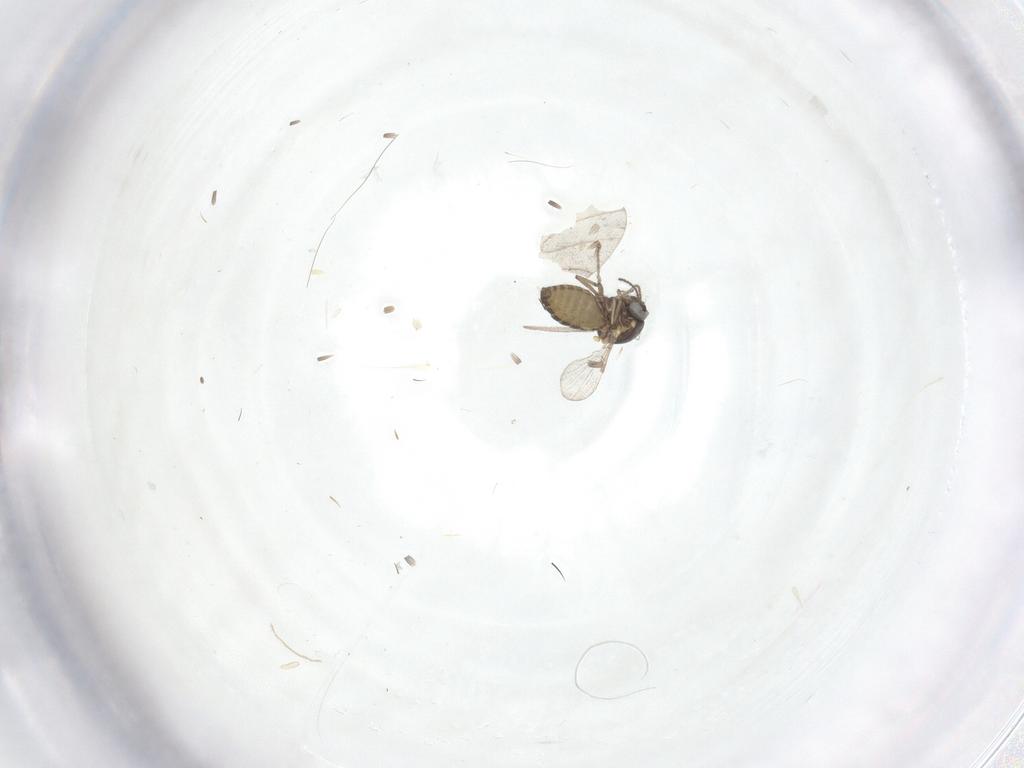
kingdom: Animalia
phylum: Arthropoda
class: Insecta
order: Diptera
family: Ceratopogonidae
